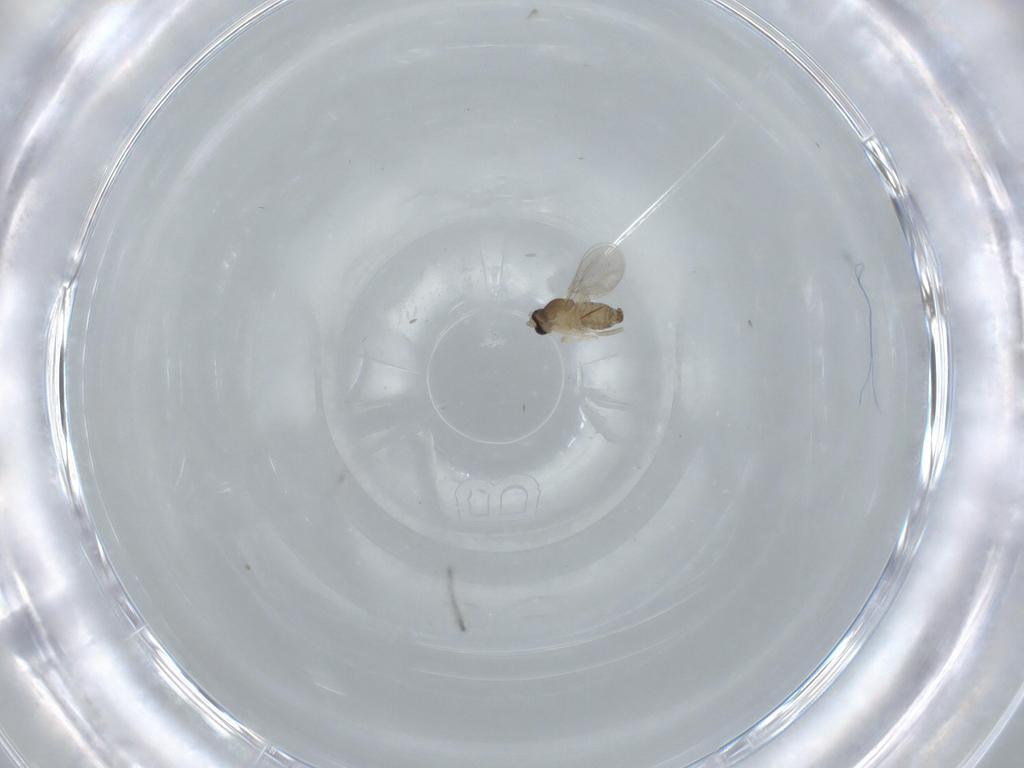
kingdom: Animalia
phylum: Arthropoda
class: Insecta
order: Diptera
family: Cecidomyiidae
